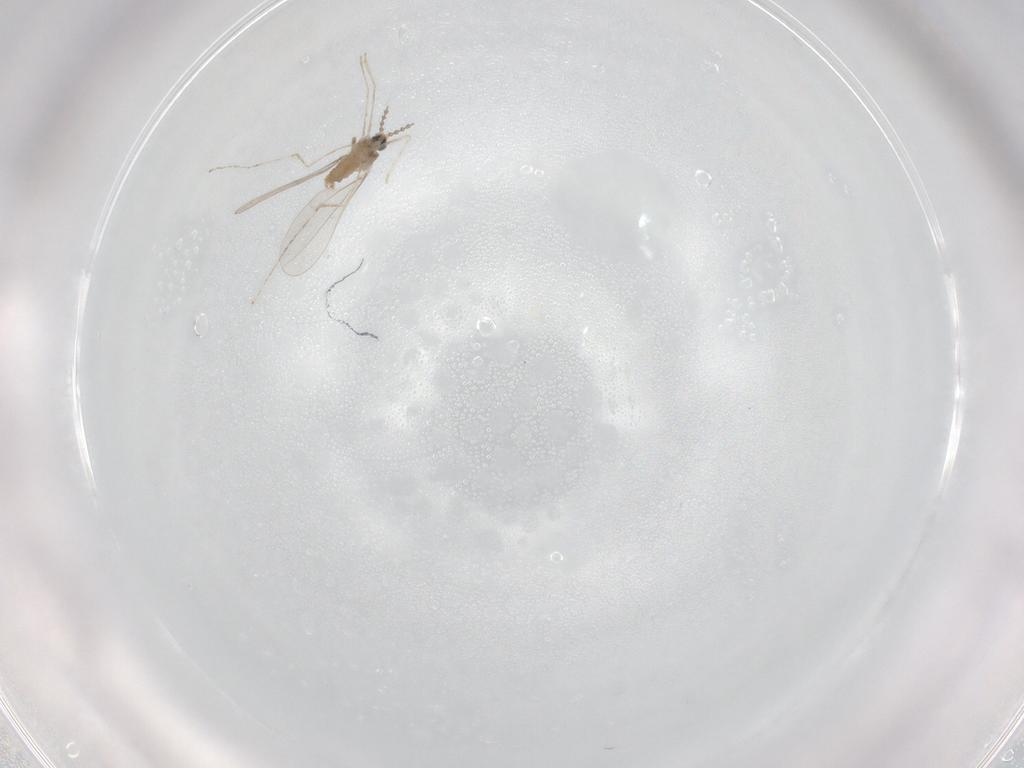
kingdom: Animalia
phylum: Arthropoda
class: Insecta
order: Diptera
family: Cecidomyiidae
